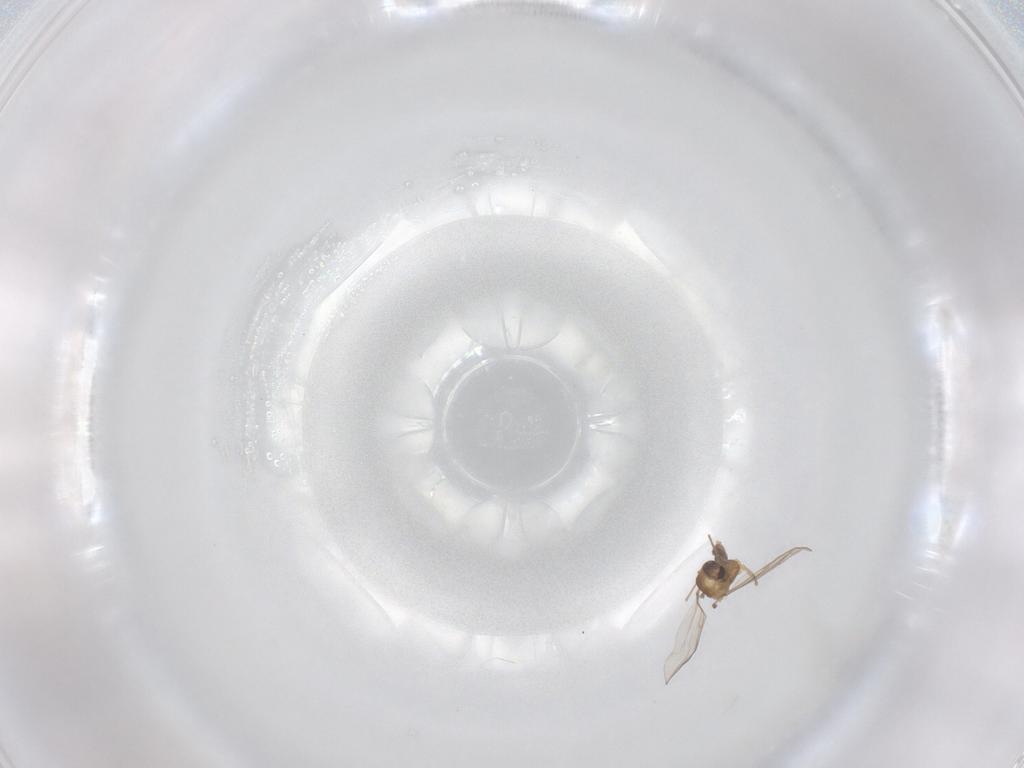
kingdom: Animalia
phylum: Arthropoda
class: Insecta
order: Diptera
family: Chironomidae
